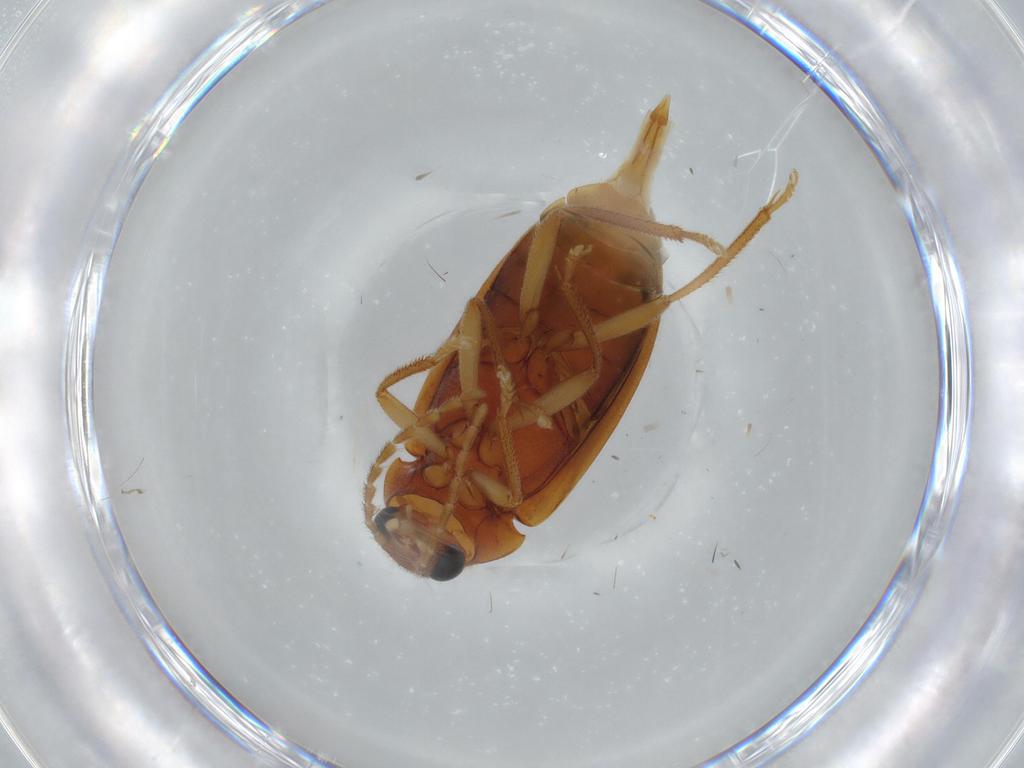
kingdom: Animalia
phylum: Arthropoda
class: Insecta
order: Coleoptera
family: Ptilodactylidae
